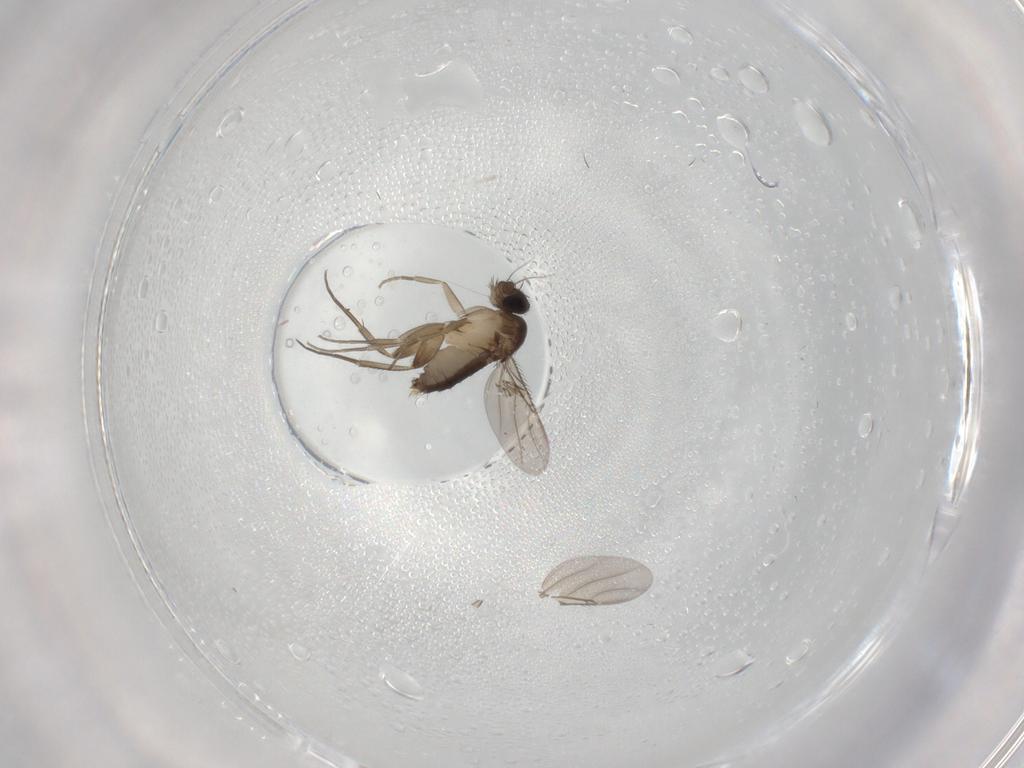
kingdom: Animalia
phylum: Arthropoda
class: Insecta
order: Diptera
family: Phoridae
